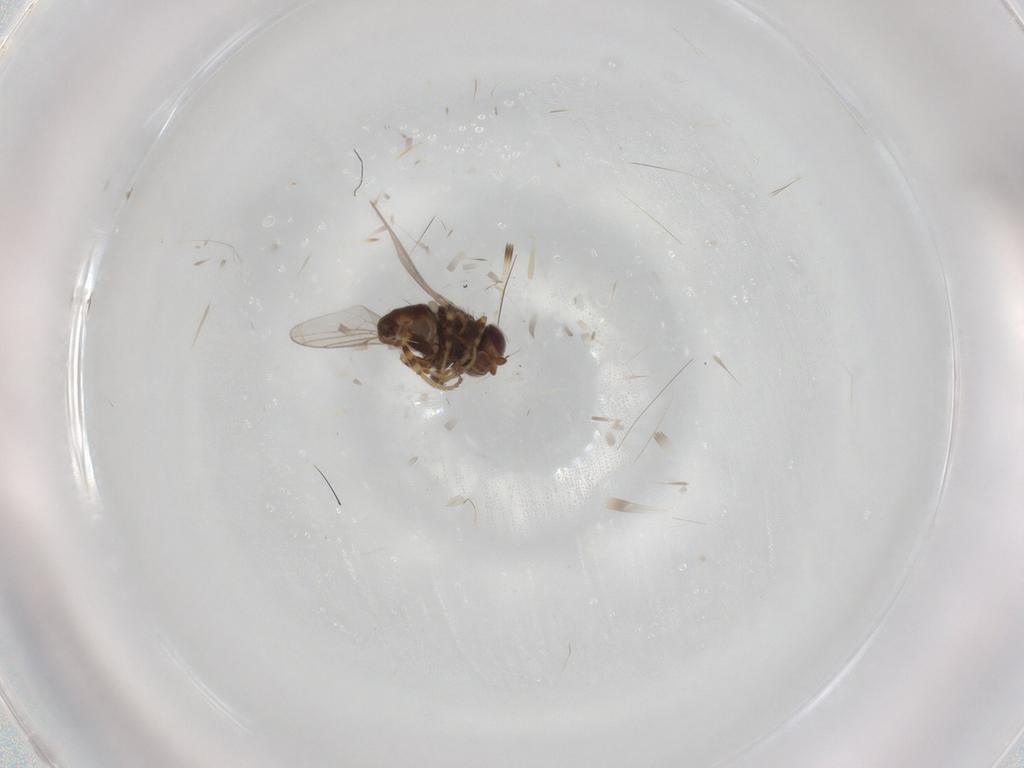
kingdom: Animalia
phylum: Arthropoda
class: Insecta
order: Diptera
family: Chloropidae
